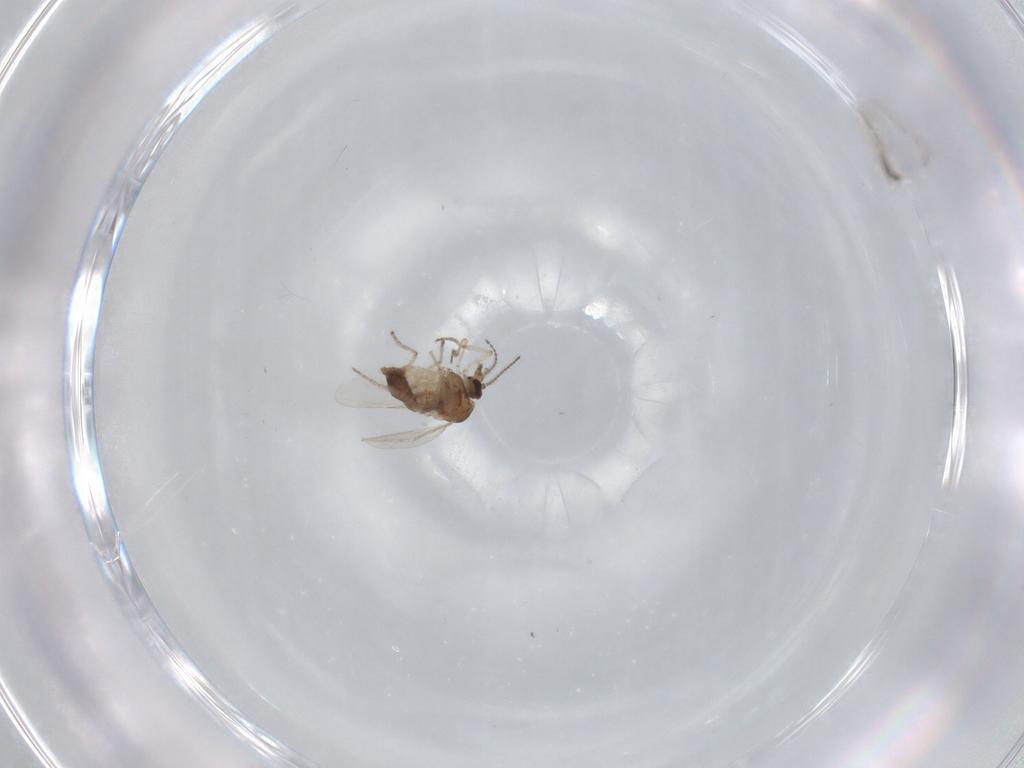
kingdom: Animalia
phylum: Arthropoda
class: Insecta
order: Diptera
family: Ceratopogonidae
